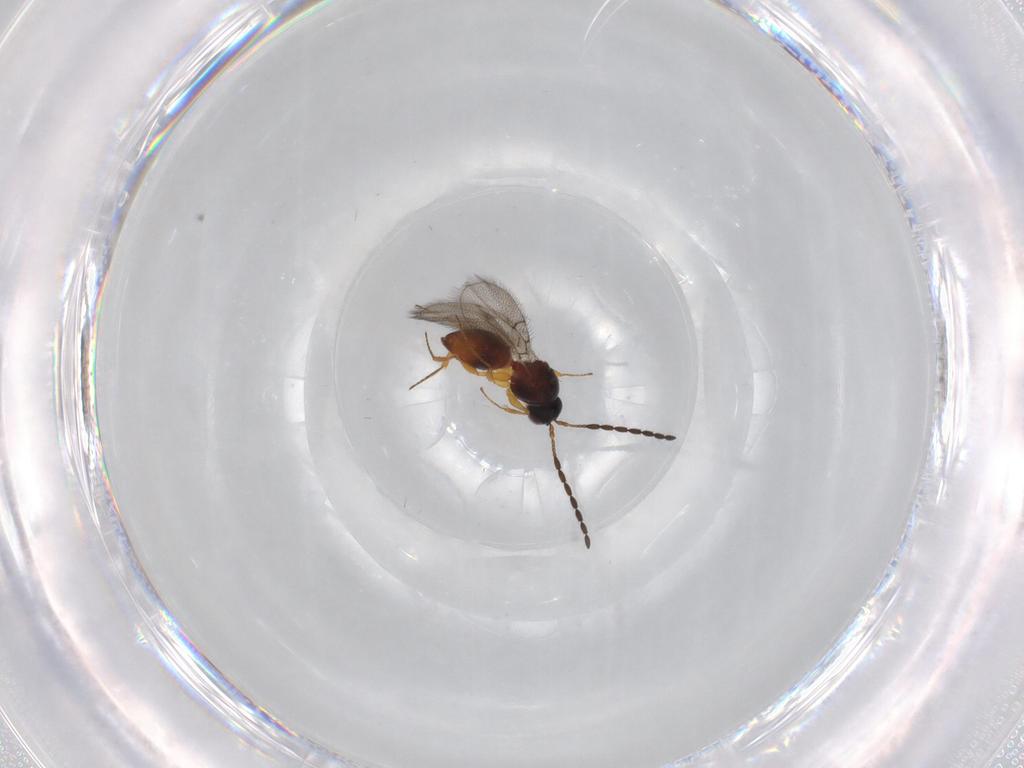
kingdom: Animalia
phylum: Arthropoda
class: Insecta
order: Hymenoptera
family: Figitidae
